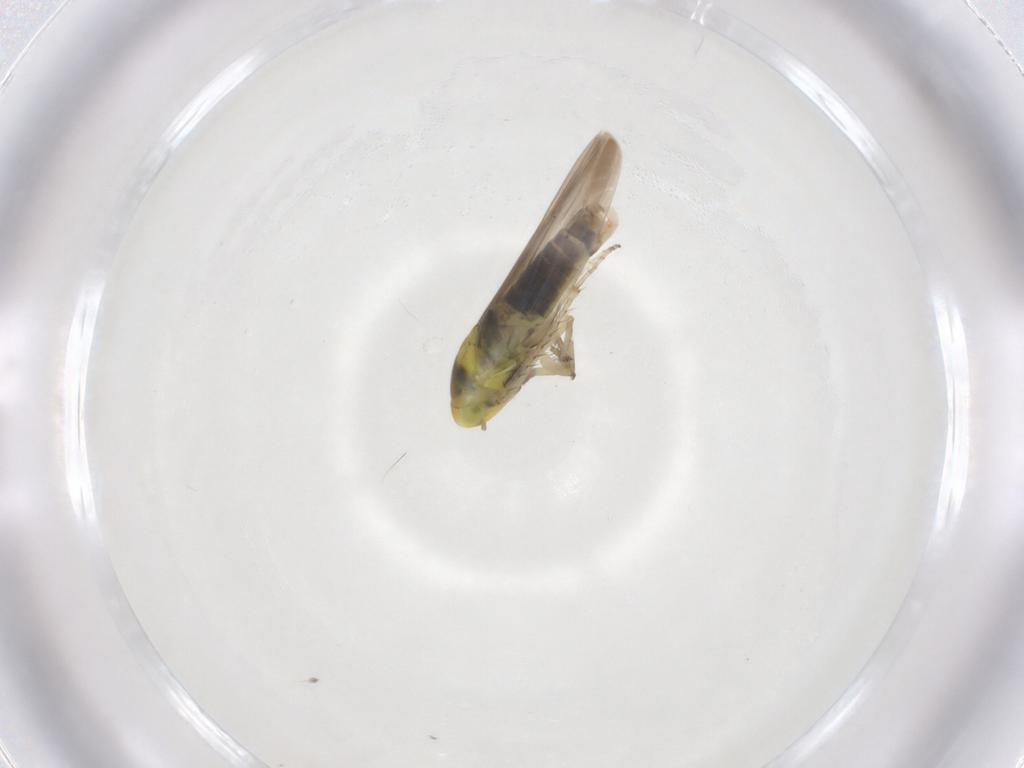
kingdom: Animalia
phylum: Arthropoda
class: Insecta
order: Hemiptera
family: Cicadellidae
